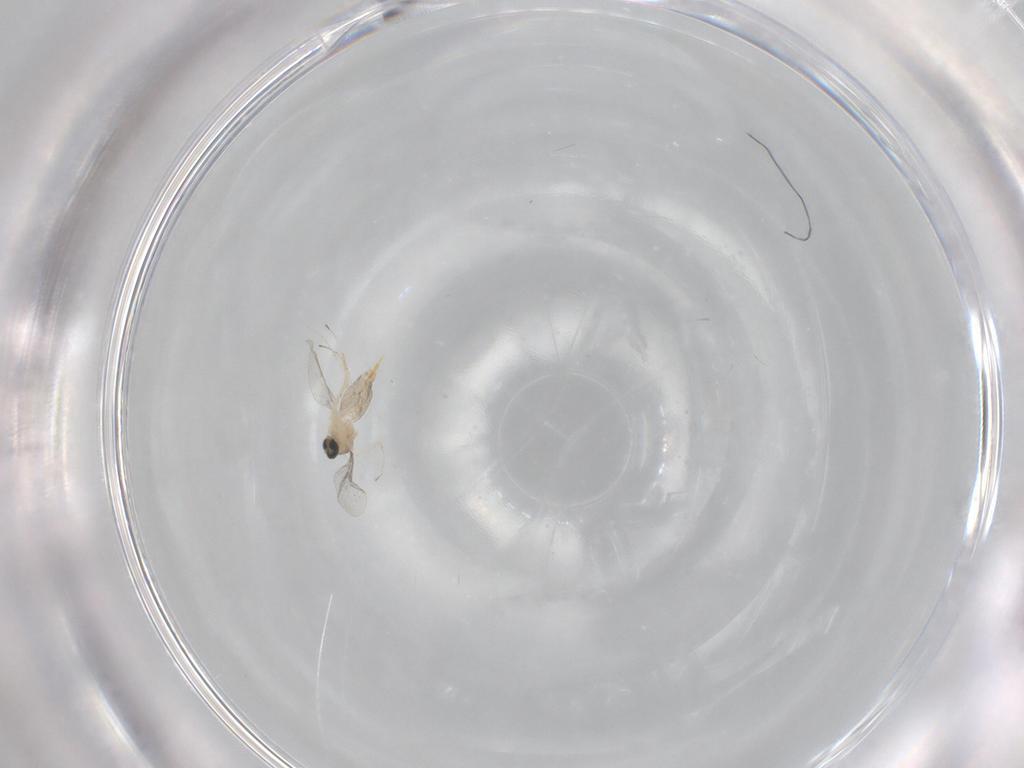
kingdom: Animalia
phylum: Arthropoda
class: Insecta
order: Diptera
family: Cecidomyiidae
